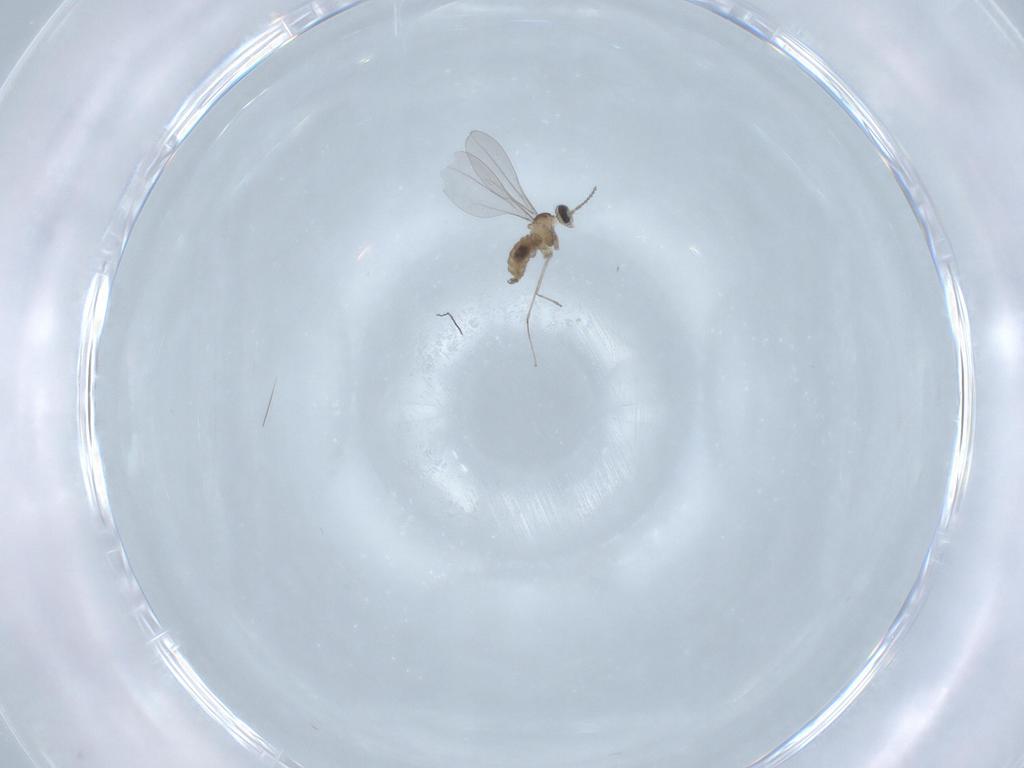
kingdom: Animalia
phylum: Arthropoda
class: Insecta
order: Diptera
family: Cecidomyiidae
